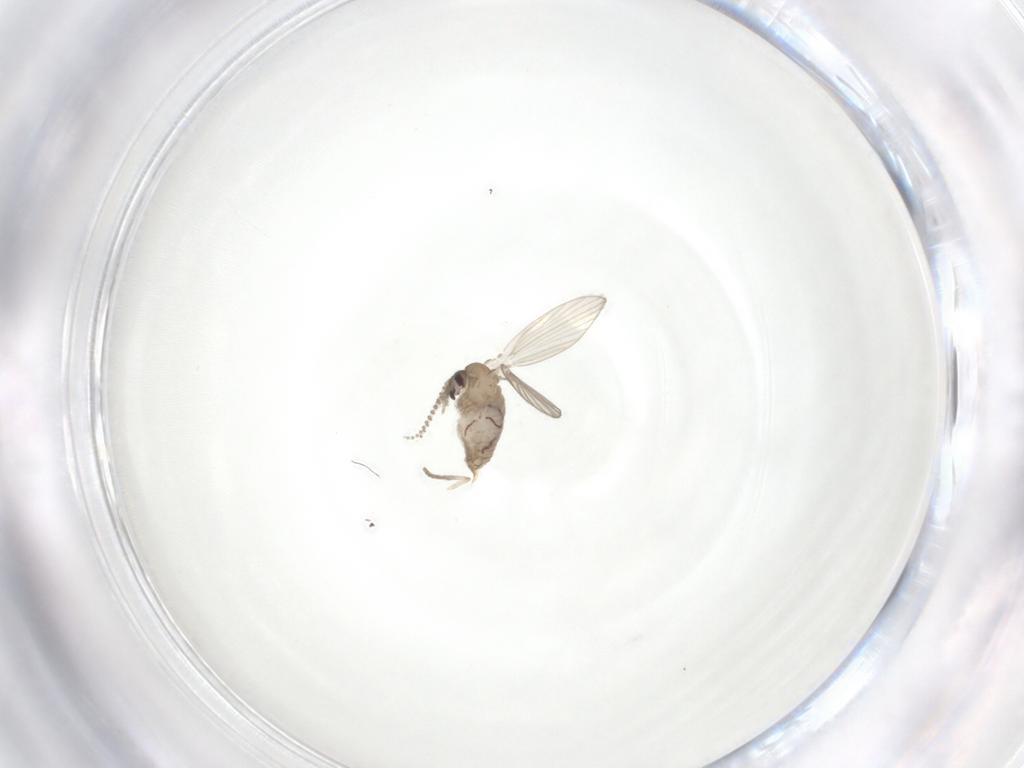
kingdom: Animalia
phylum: Arthropoda
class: Insecta
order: Diptera
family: Psychodidae
